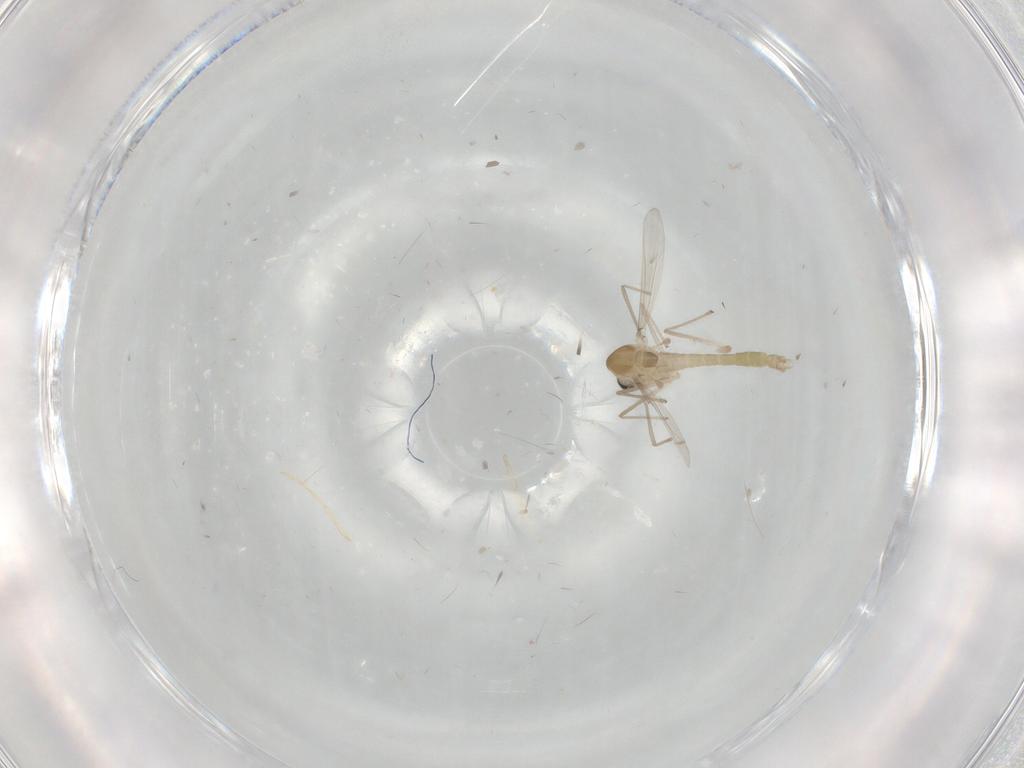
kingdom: Animalia
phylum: Arthropoda
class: Insecta
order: Diptera
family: Chironomidae
